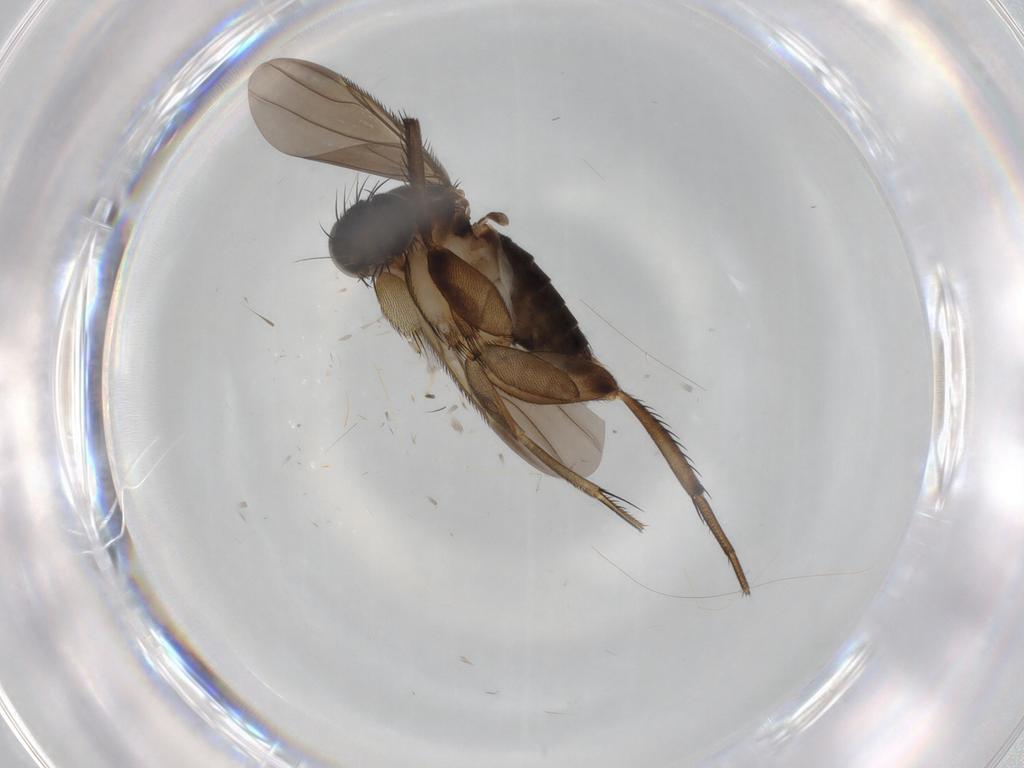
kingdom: Animalia
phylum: Arthropoda
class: Insecta
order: Diptera
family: Phoridae
